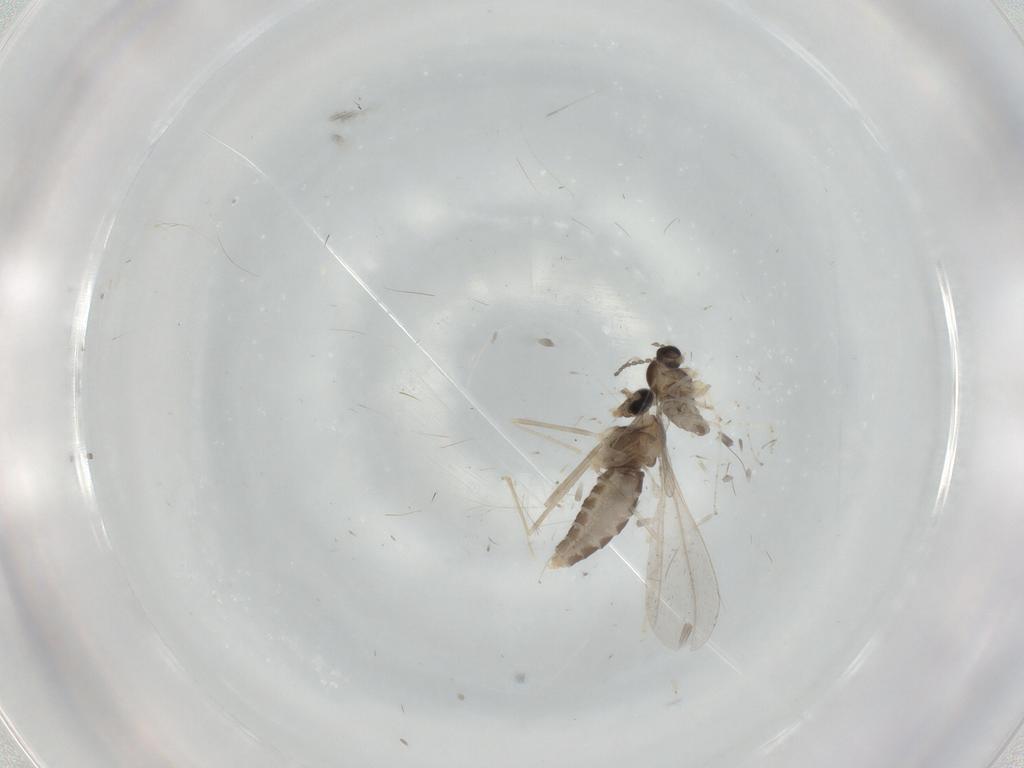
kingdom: Animalia
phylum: Arthropoda
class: Insecta
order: Diptera
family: Cecidomyiidae
